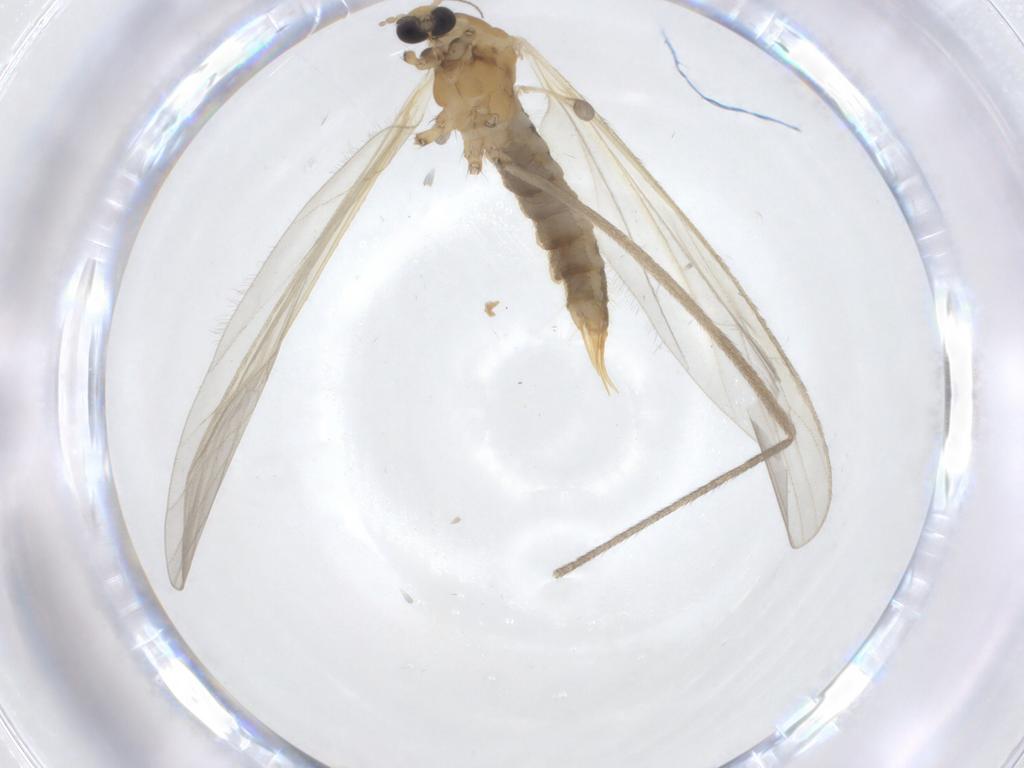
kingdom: Animalia
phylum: Arthropoda
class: Insecta
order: Diptera
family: Limoniidae
